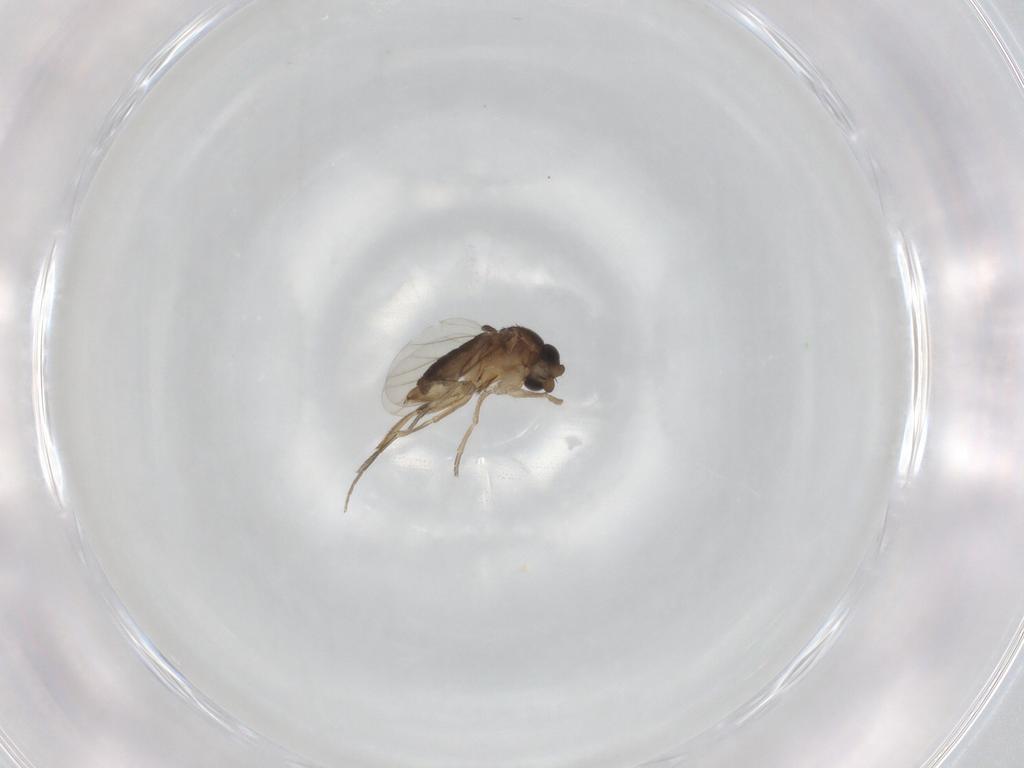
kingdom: Animalia
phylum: Arthropoda
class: Insecta
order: Diptera
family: Phoridae
